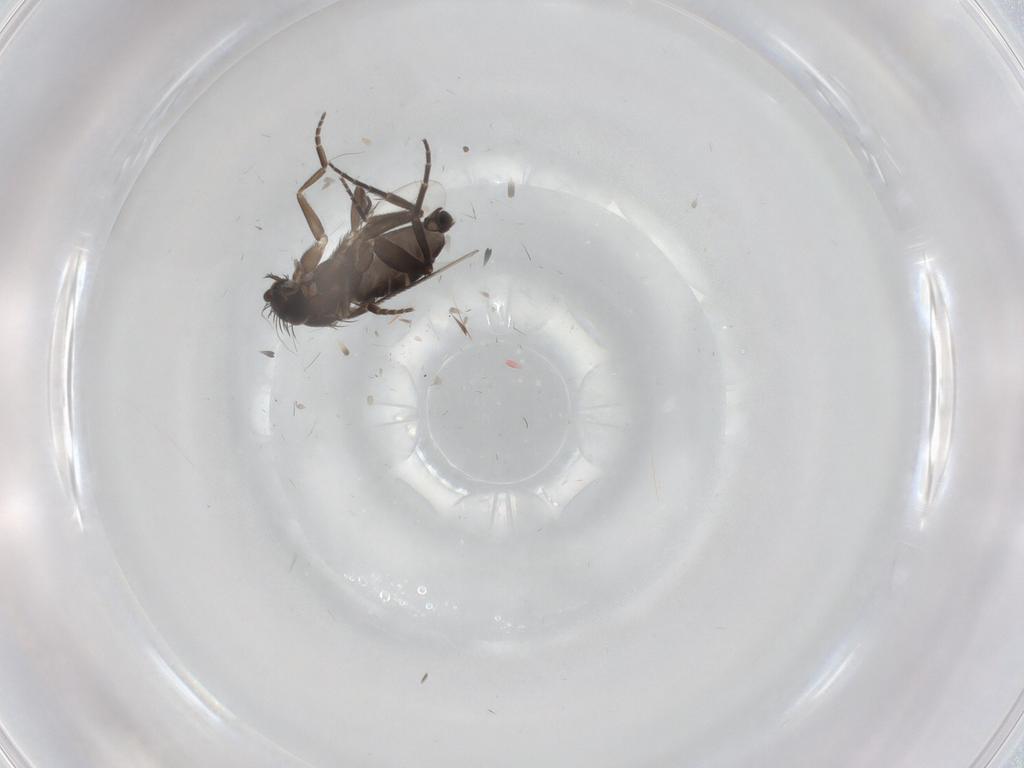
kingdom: Animalia
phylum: Arthropoda
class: Insecta
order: Diptera
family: Phoridae
